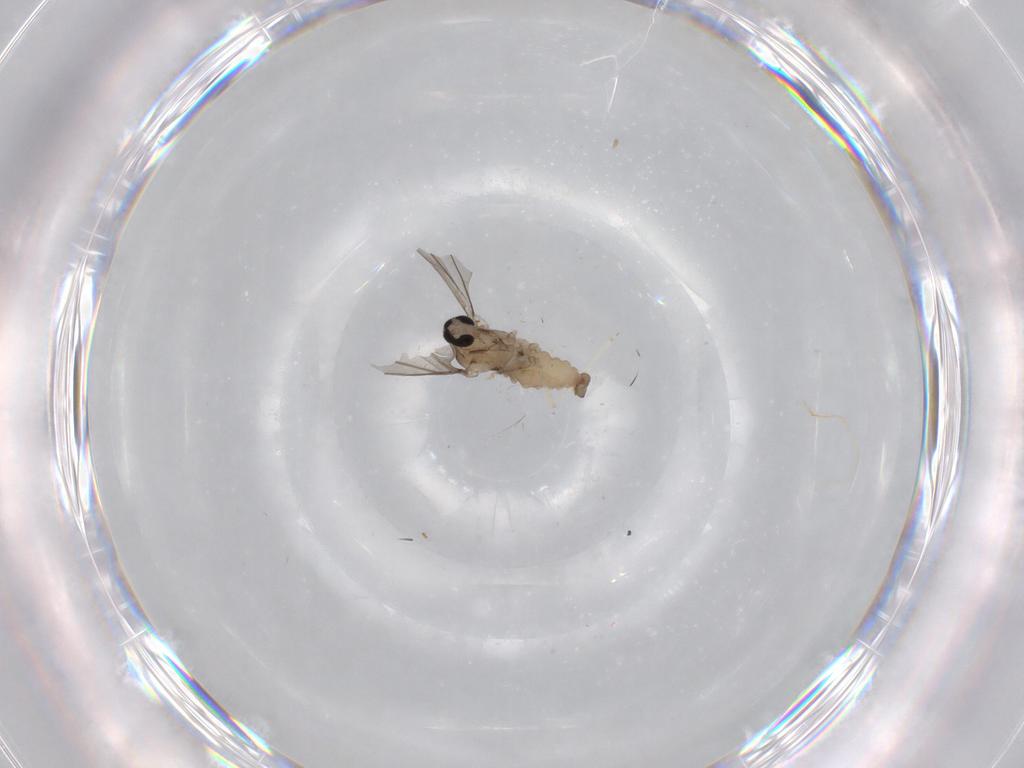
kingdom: Animalia
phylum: Arthropoda
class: Insecta
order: Diptera
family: Cecidomyiidae
